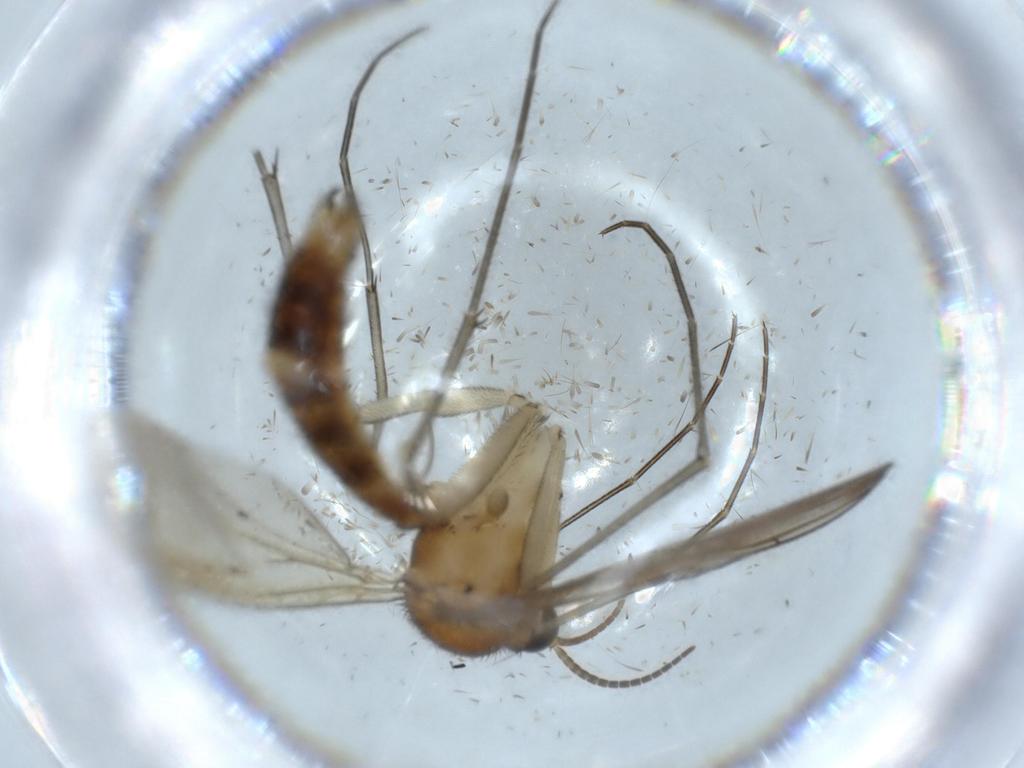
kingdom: Animalia
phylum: Arthropoda
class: Insecta
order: Diptera
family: Keroplatidae
